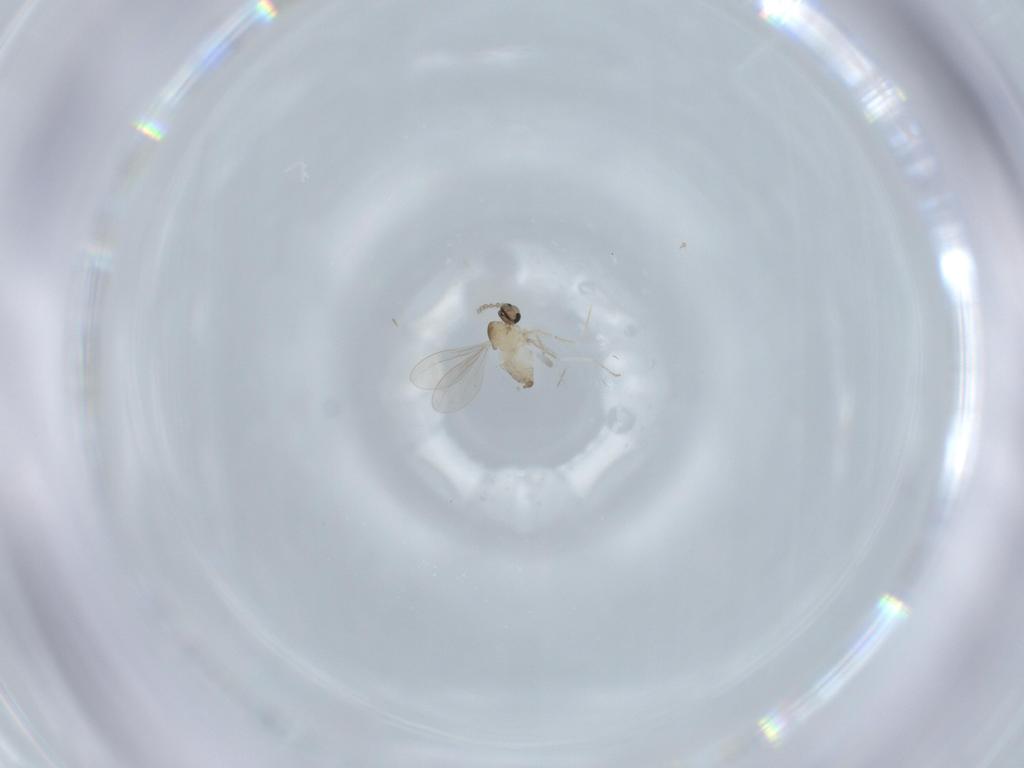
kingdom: Animalia
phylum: Arthropoda
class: Insecta
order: Diptera
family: Cecidomyiidae
